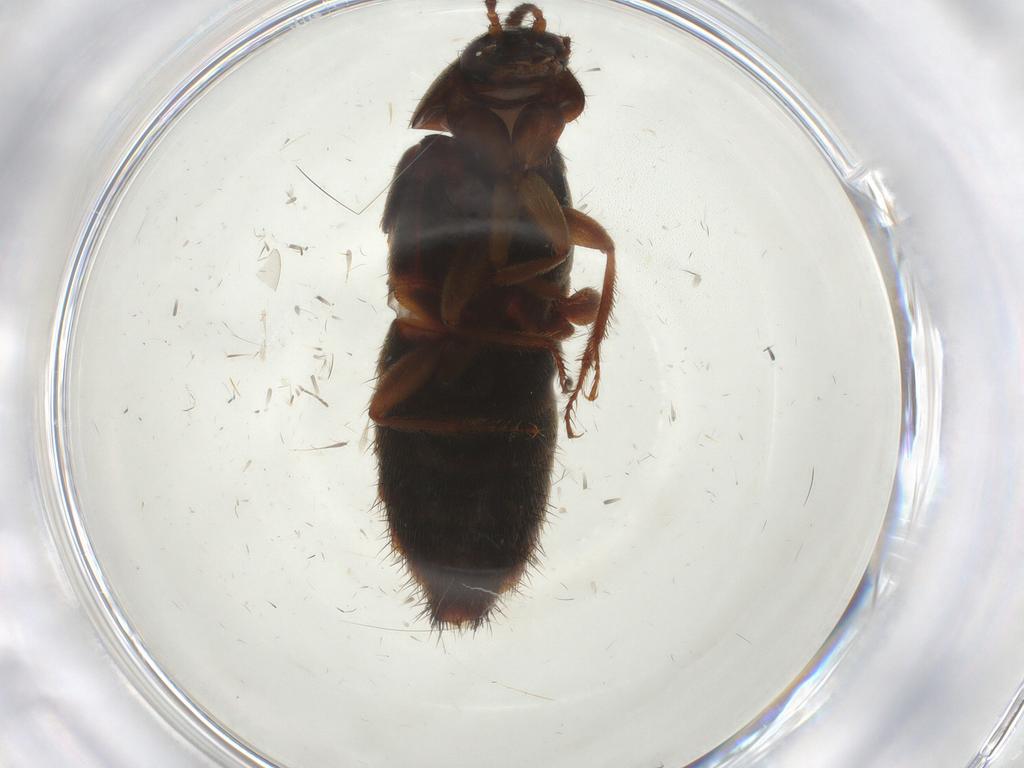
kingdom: Animalia
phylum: Arthropoda
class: Insecta
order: Coleoptera
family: Staphylinidae
